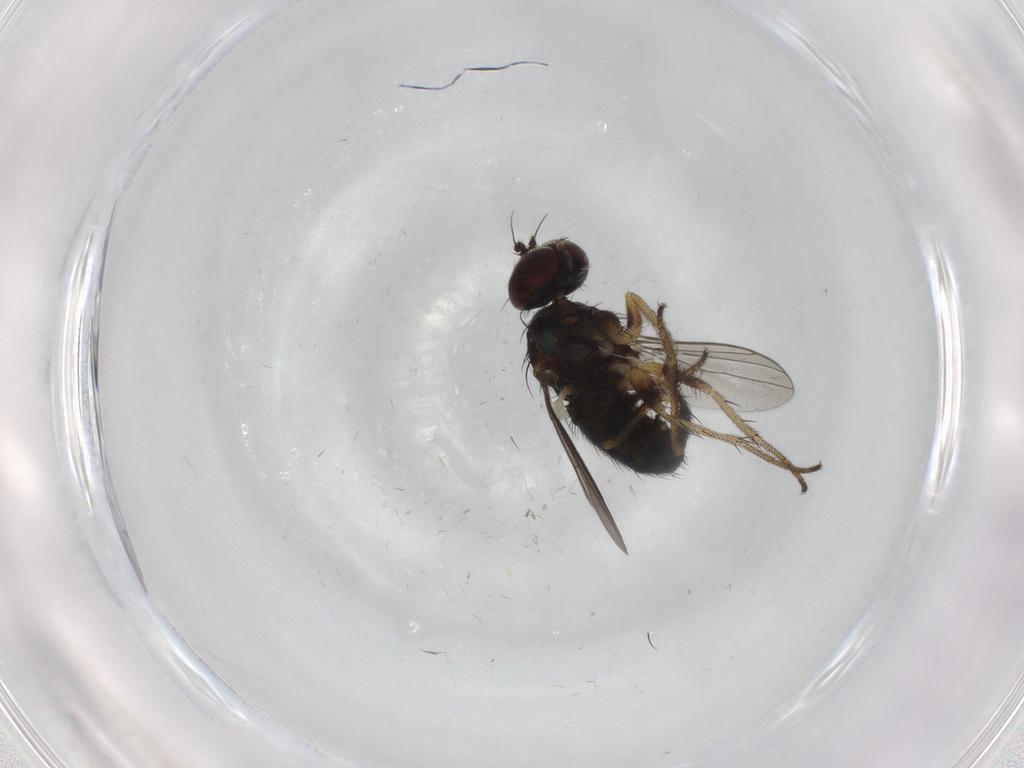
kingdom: Animalia
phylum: Arthropoda
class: Insecta
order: Diptera
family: Dolichopodidae
